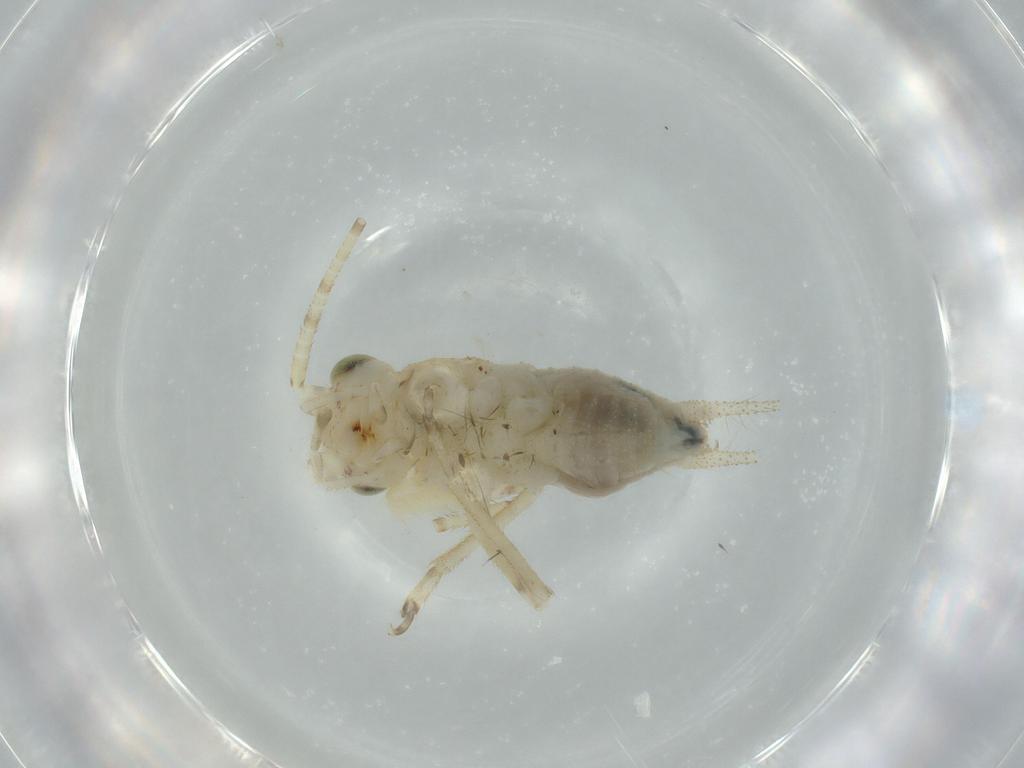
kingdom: Animalia
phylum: Arthropoda
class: Insecta
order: Orthoptera
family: Trigonidiidae
